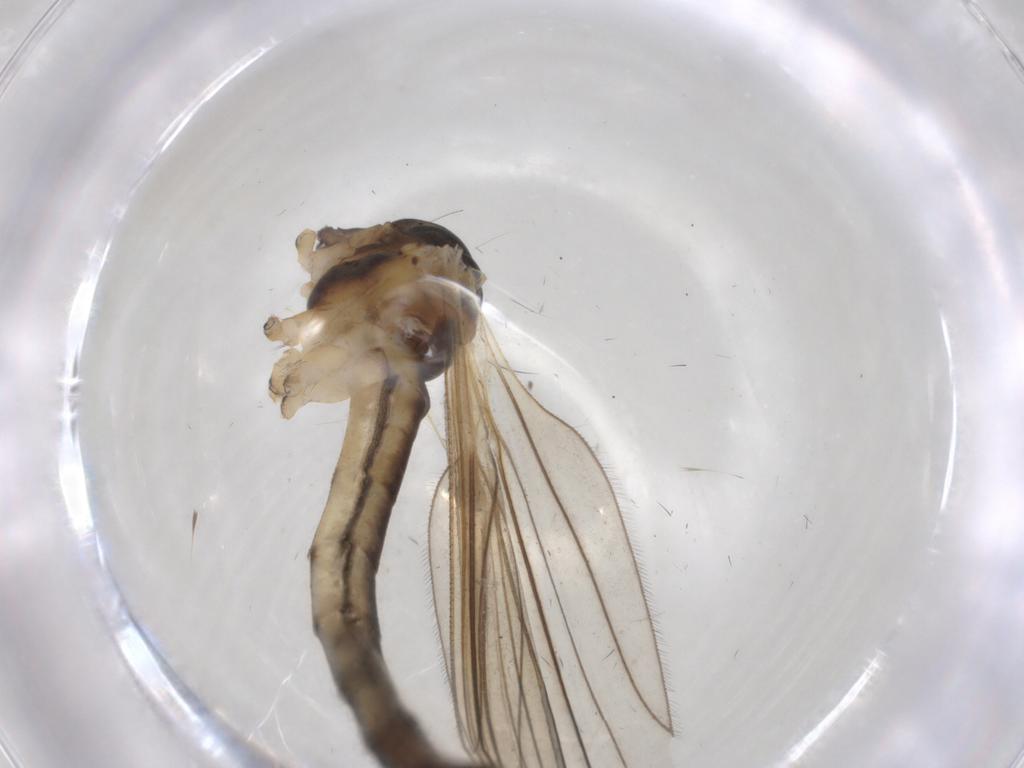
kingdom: Animalia
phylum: Arthropoda
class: Insecta
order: Diptera
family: Limoniidae
